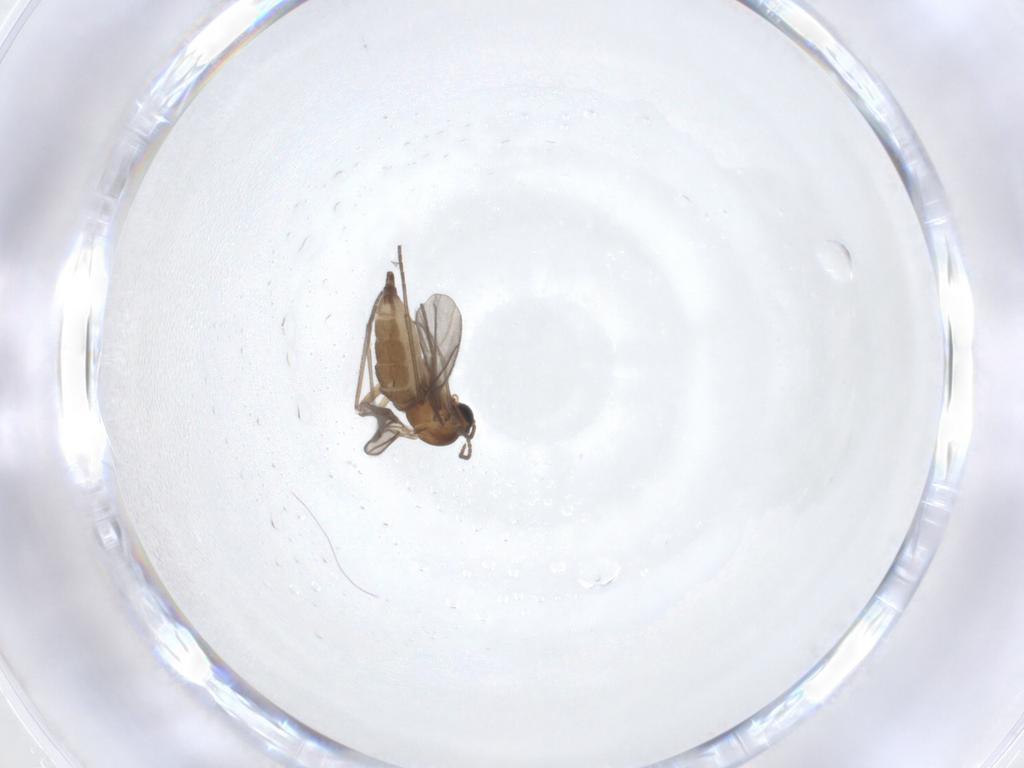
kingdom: Animalia
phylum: Arthropoda
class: Insecta
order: Diptera
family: Sciaridae
